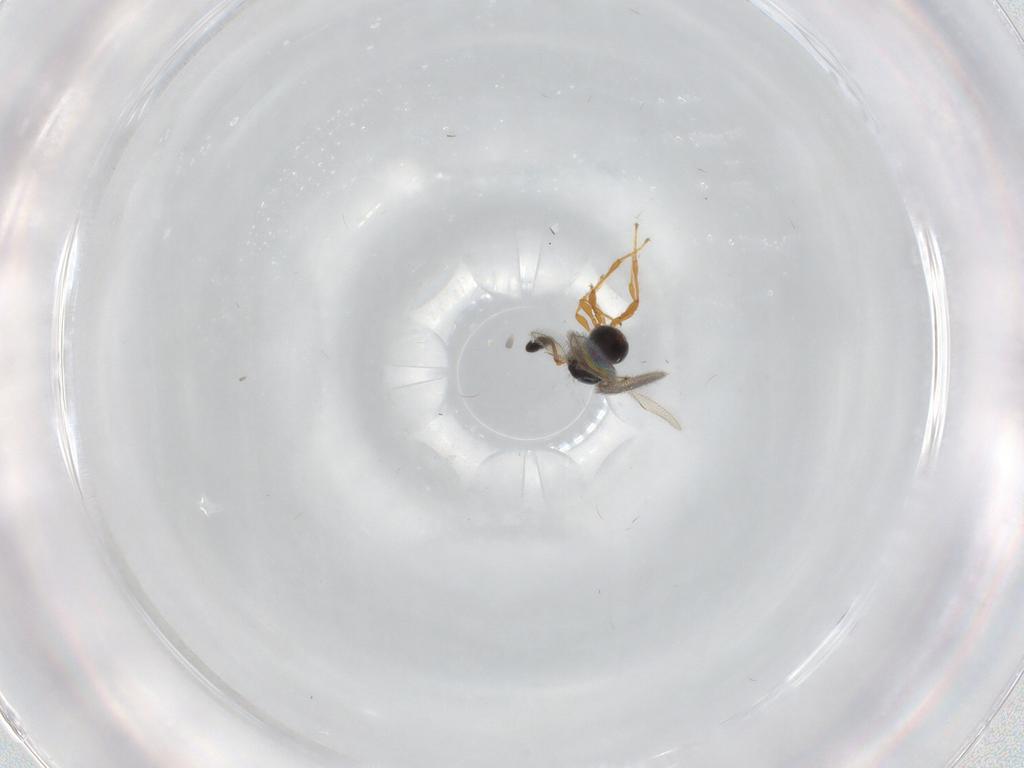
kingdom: Animalia
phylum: Arthropoda
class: Insecta
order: Hymenoptera
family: Diapriidae
